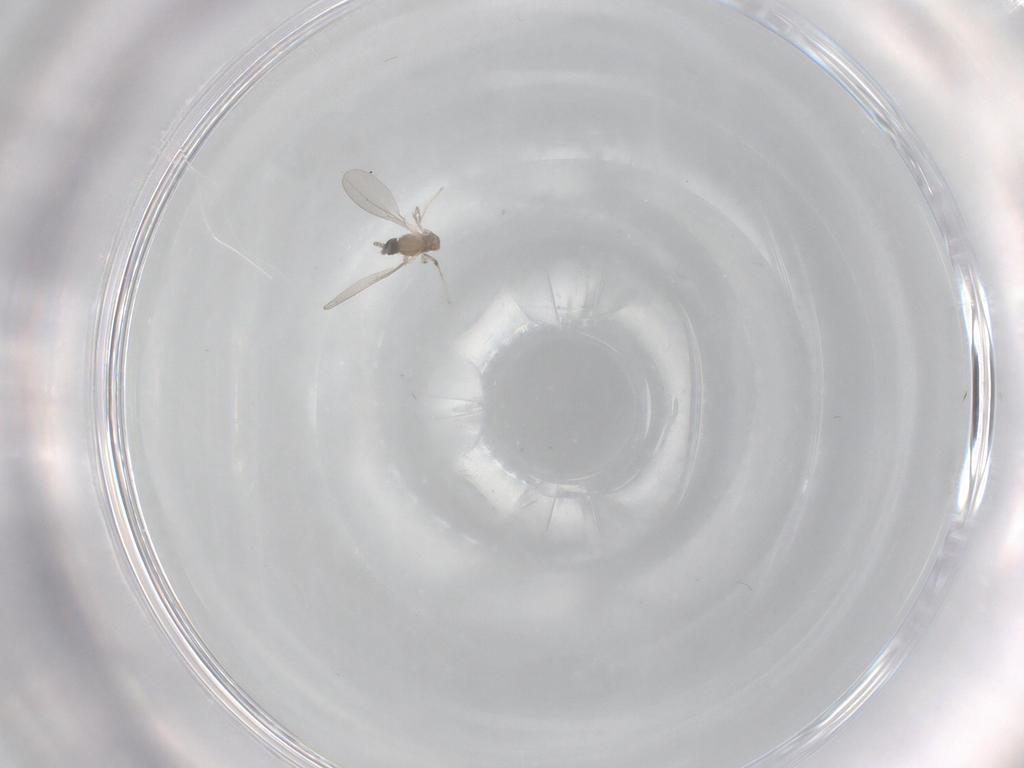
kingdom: Animalia
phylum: Arthropoda
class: Insecta
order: Diptera
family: Cecidomyiidae
